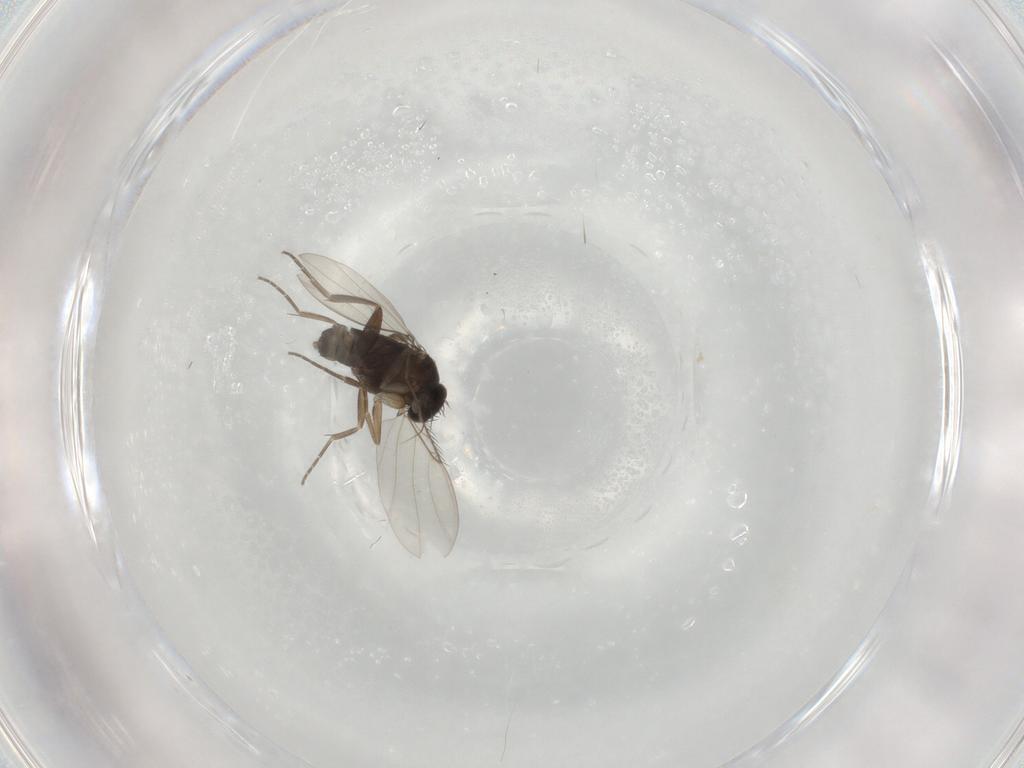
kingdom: Animalia
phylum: Arthropoda
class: Insecta
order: Diptera
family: Phoridae
